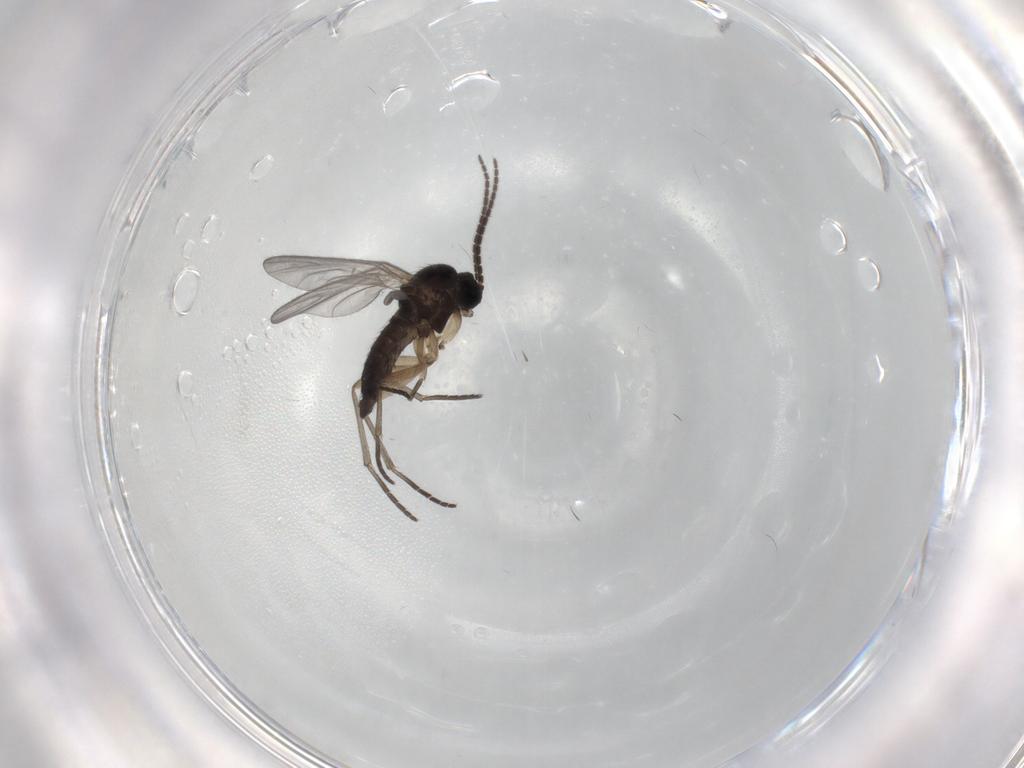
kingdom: Animalia
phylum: Arthropoda
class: Insecta
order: Diptera
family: Cecidomyiidae
